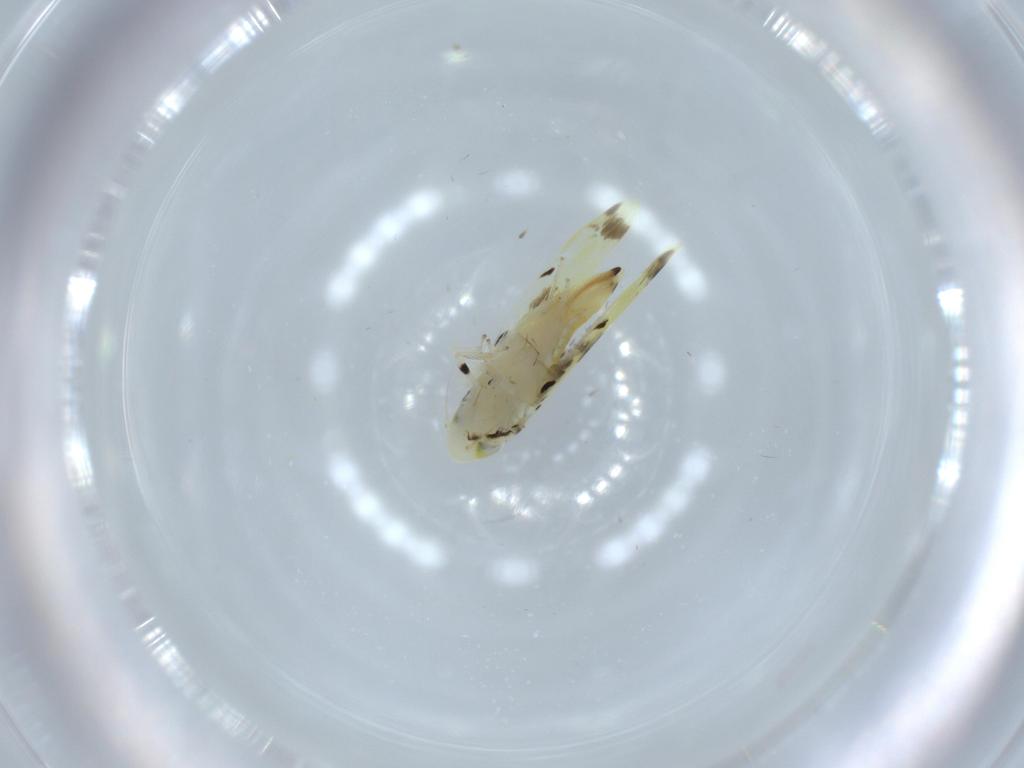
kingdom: Animalia
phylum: Arthropoda
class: Insecta
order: Hemiptera
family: Cicadellidae
